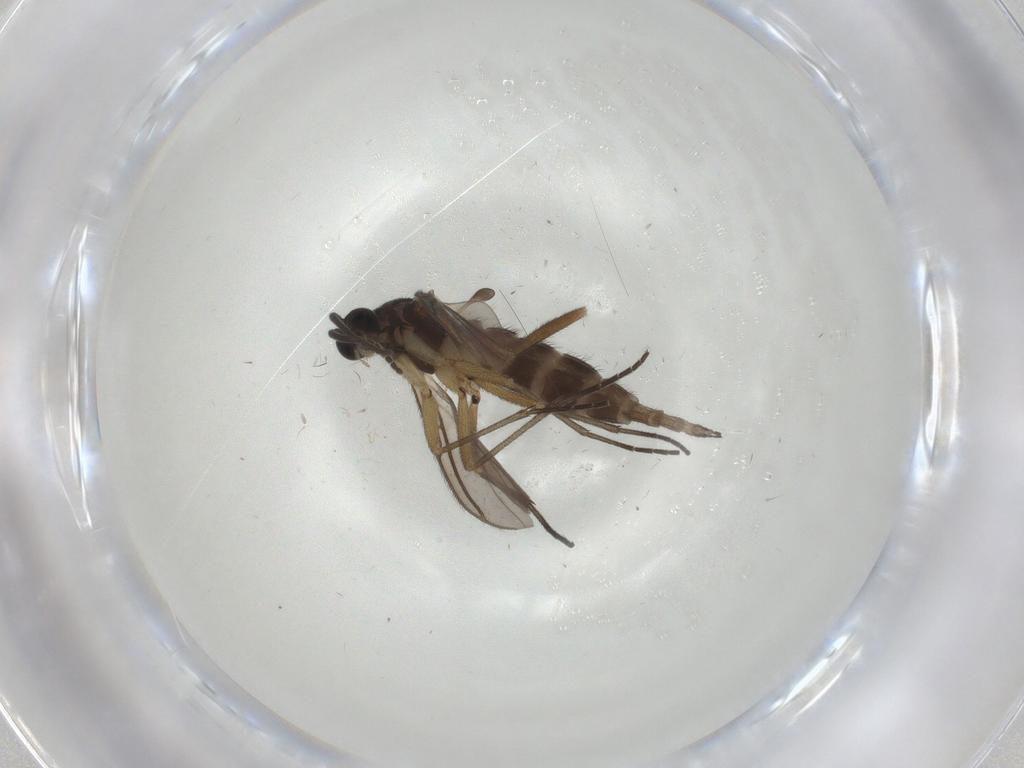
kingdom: Animalia
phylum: Arthropoda
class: Insecta
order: Diptera
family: Sciaridae
